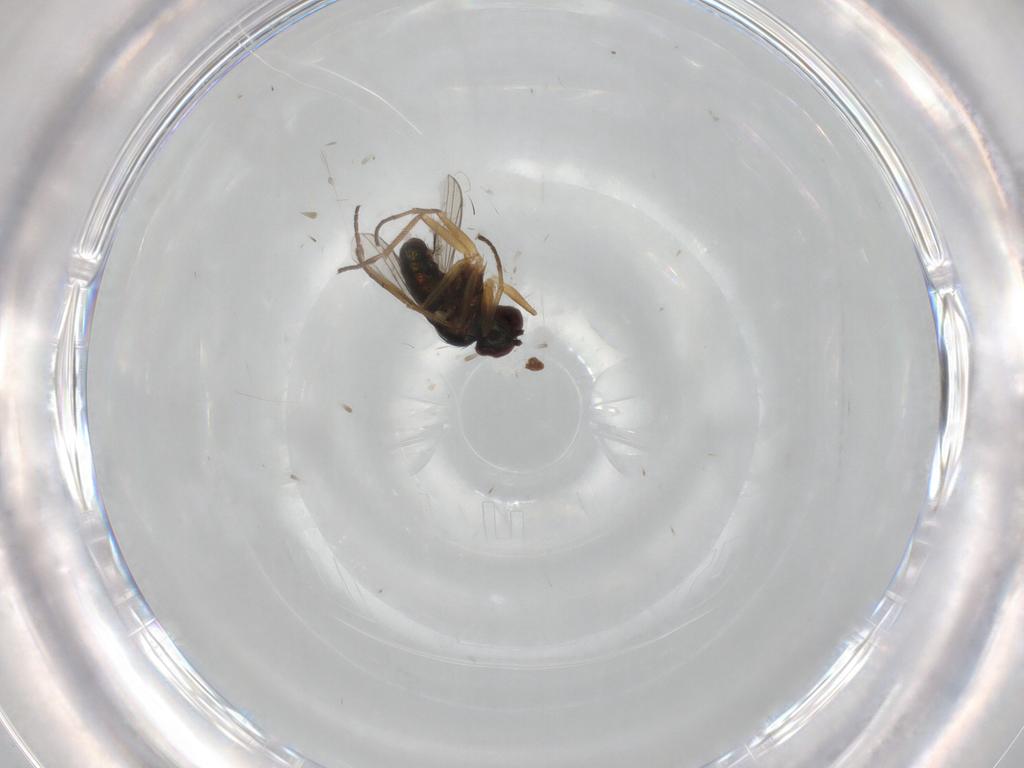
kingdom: Animalia
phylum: Arthropoda
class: Insecta
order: Diptera
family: Dolichopodidae
